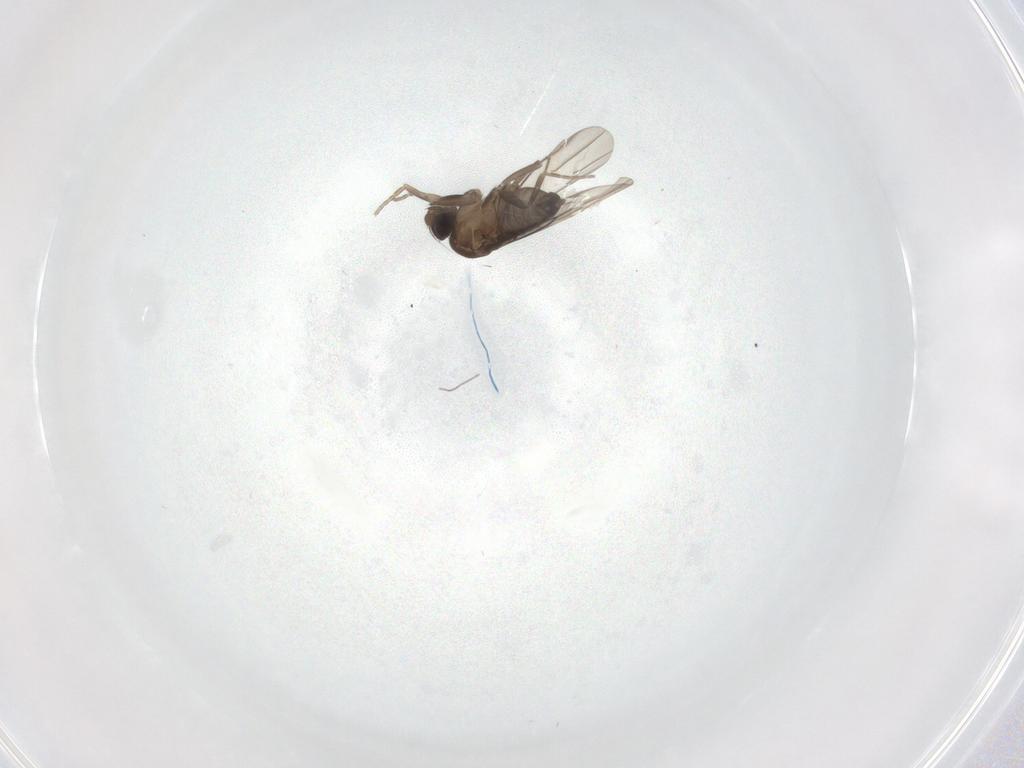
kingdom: Animalia
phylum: Arthropoda
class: Insecta
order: Diptera
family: Phoridae
